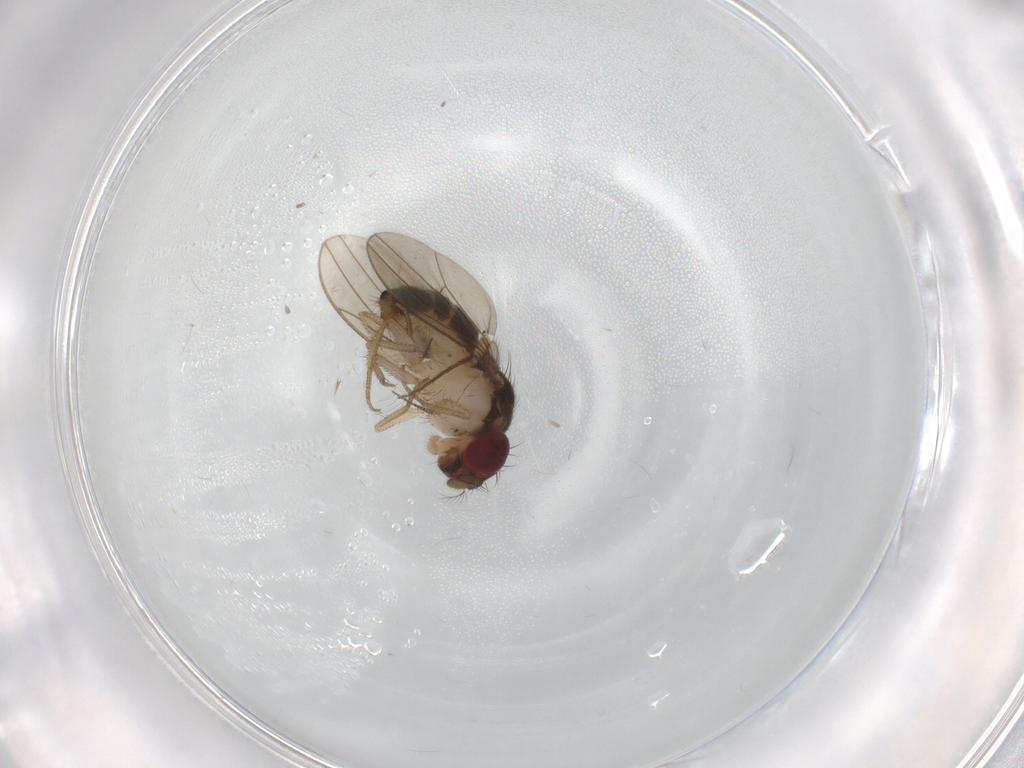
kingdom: Animalia
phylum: Arthropoda
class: Insecta
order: Diptera
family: Drosophilidae
